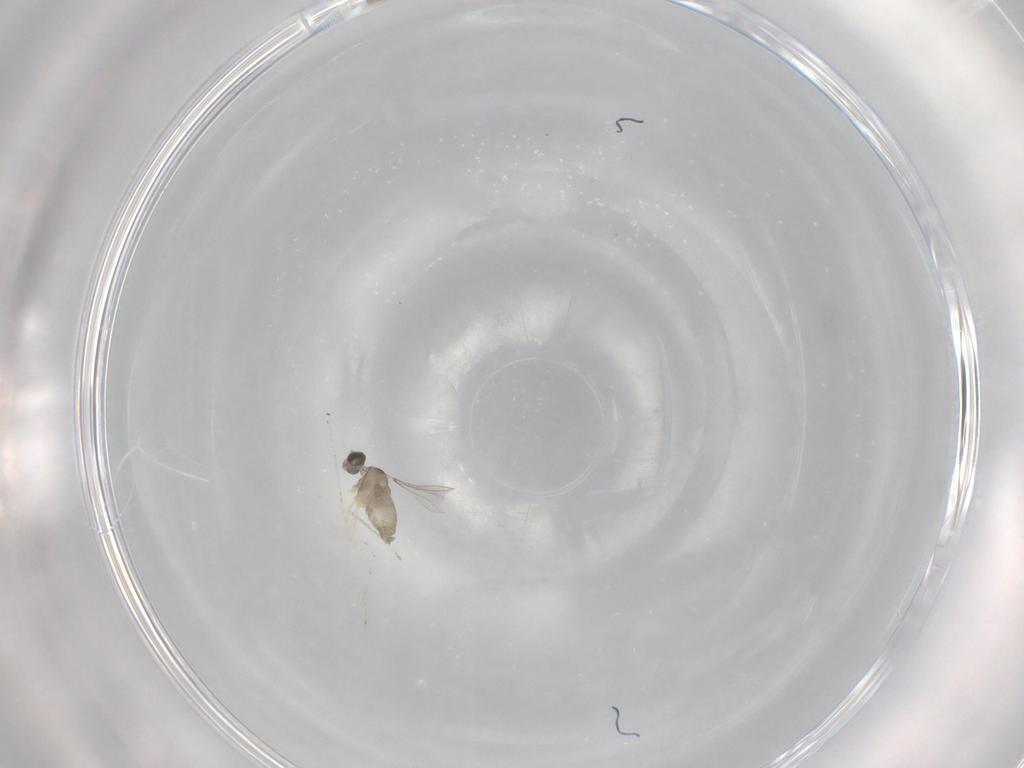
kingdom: Animalia
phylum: Arthropoda
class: Insecta
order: Diptera
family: Cecidomyiidae
